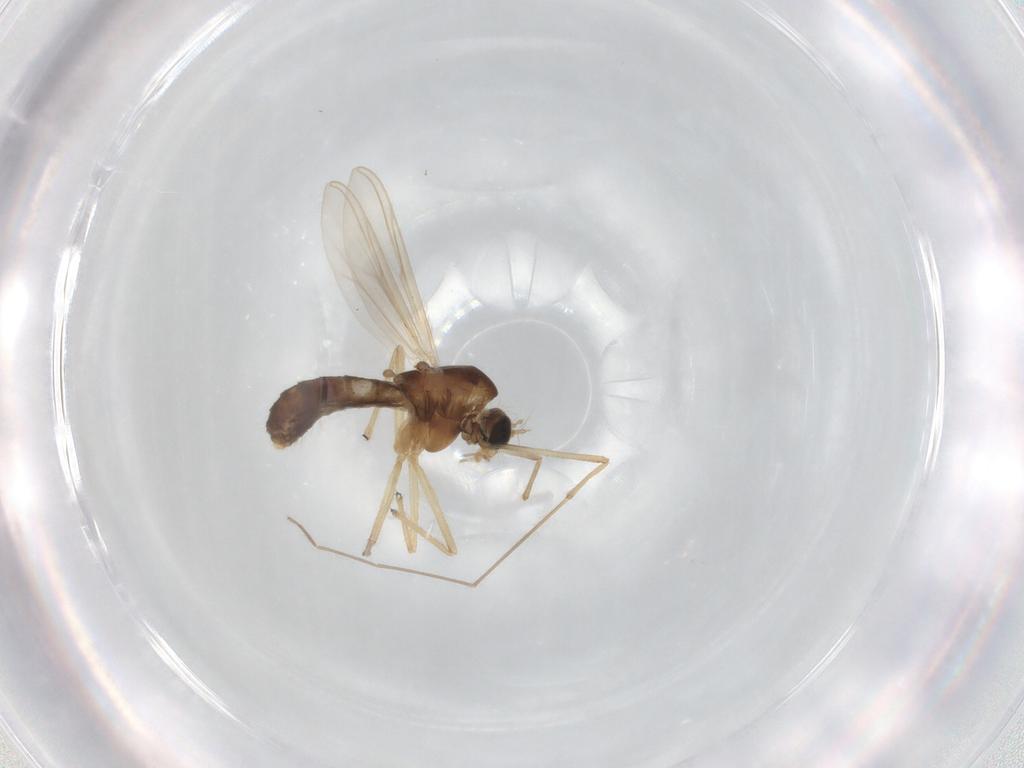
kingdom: Animalia
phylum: Arthropoda
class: Insecta
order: Diptera
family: Chironomidae
